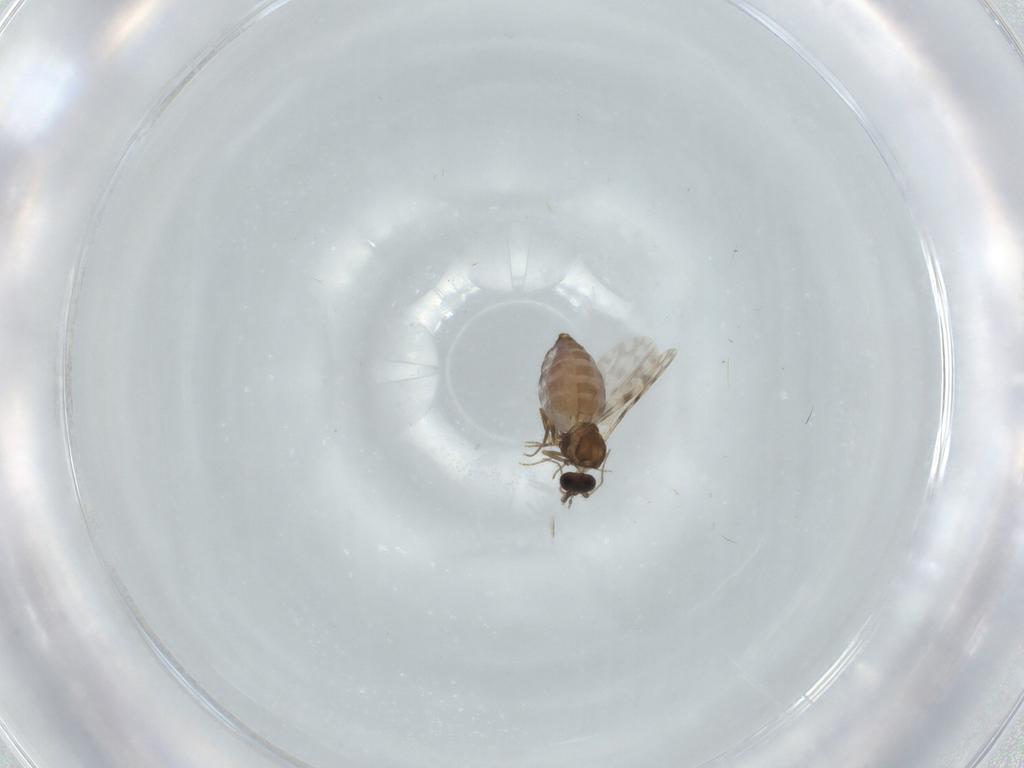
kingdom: Animalia
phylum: Arthropoda
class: Insecta
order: Diptera
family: Ceratopogonidae
